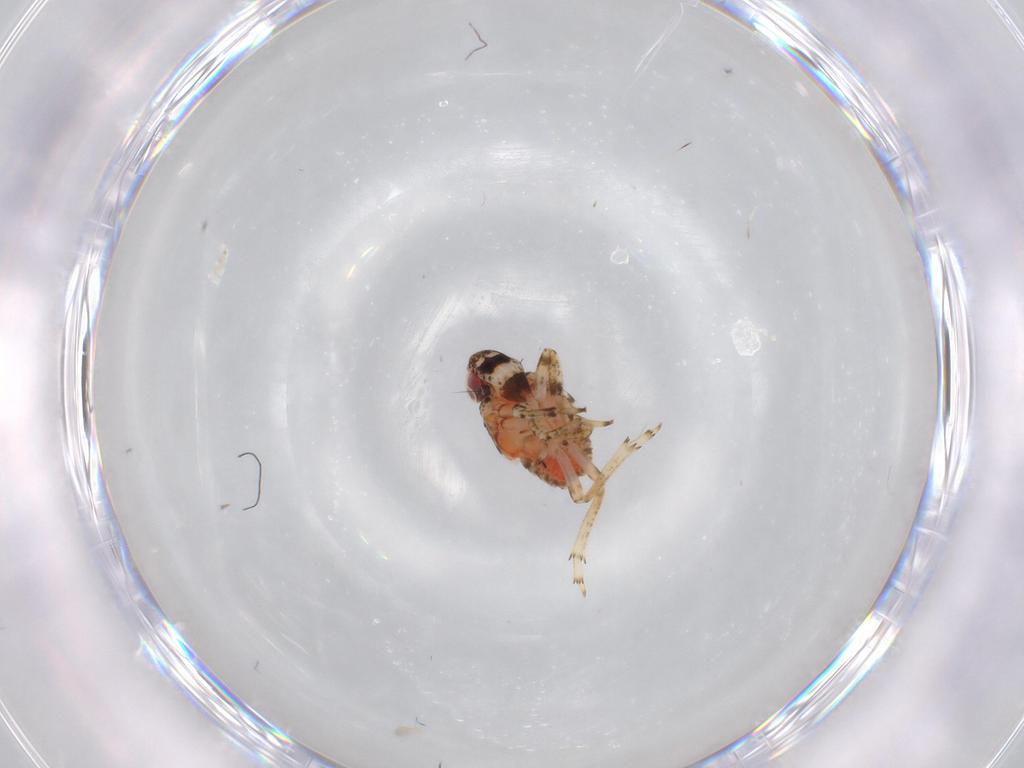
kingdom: Animalia
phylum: Arthropoda
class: Insecta
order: Hemiptera
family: Issidae
